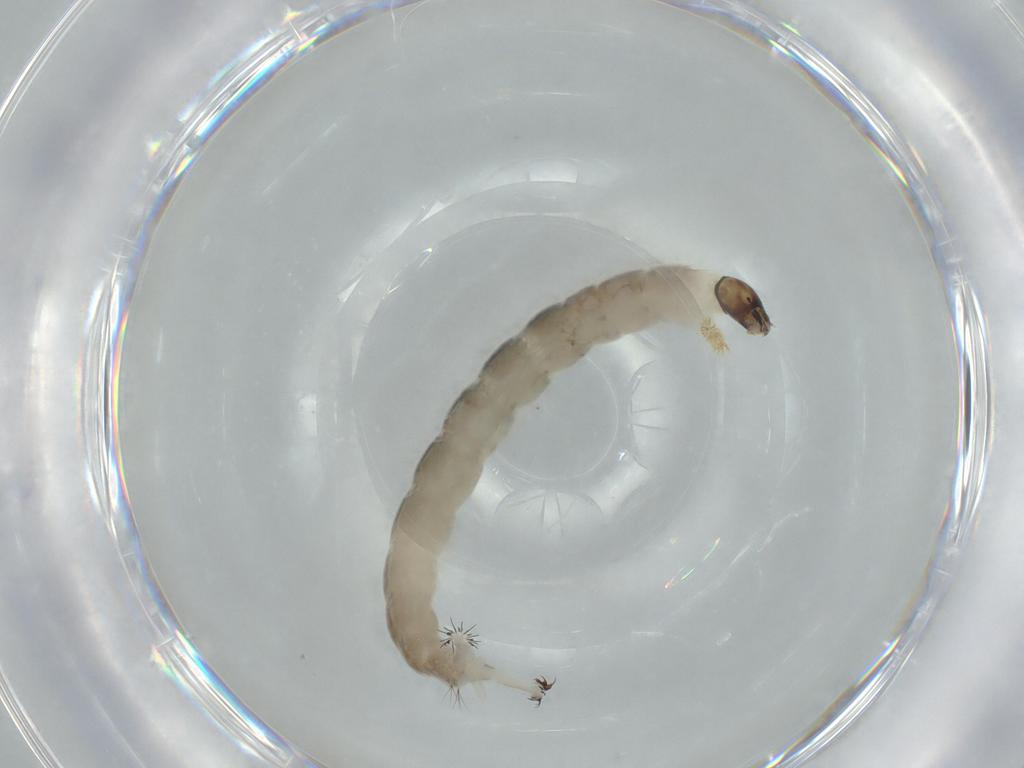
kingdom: Animalia
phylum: Arthropoda
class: Insecta
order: Diptera
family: Chironomidae
